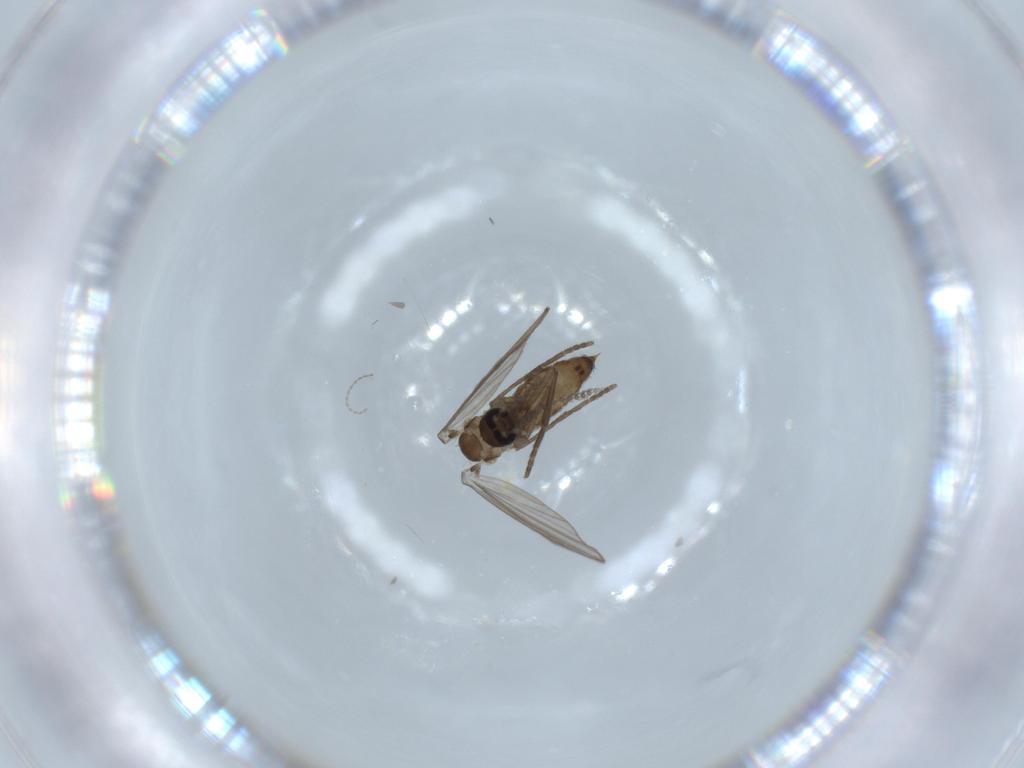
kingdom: Animalia
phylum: Arthropoda
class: Insecta
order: Diptera
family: Psychodidae
